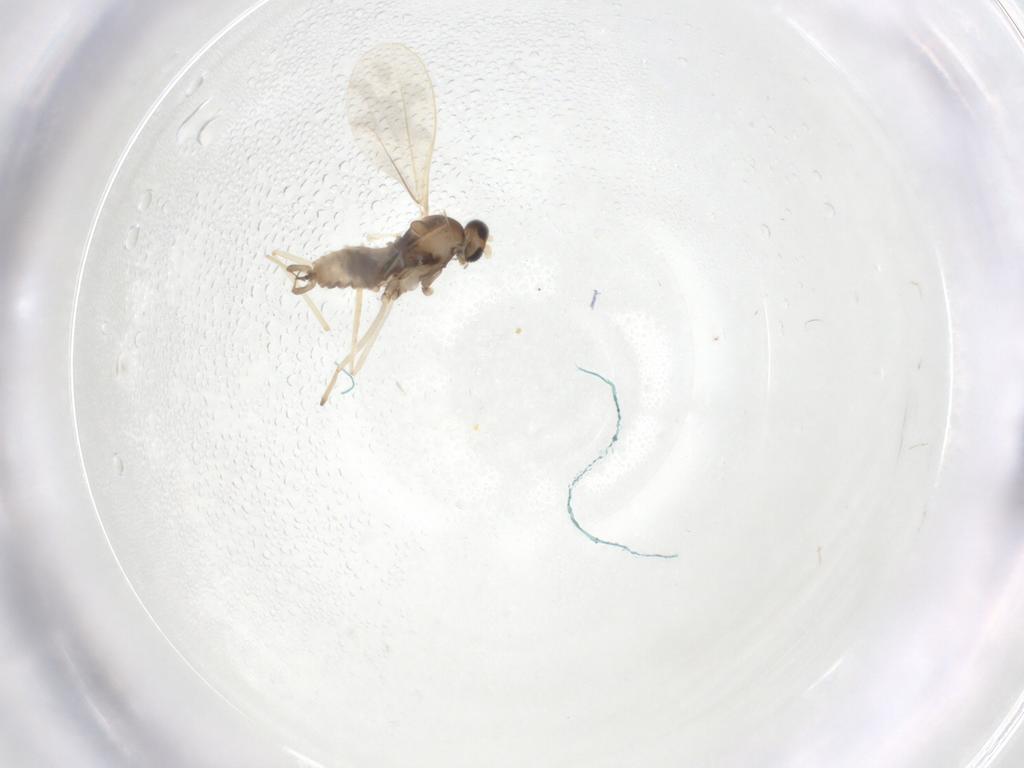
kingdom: Animalia
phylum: Arthropoda
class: Insecta
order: Diptera
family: Cecidomyiidae
